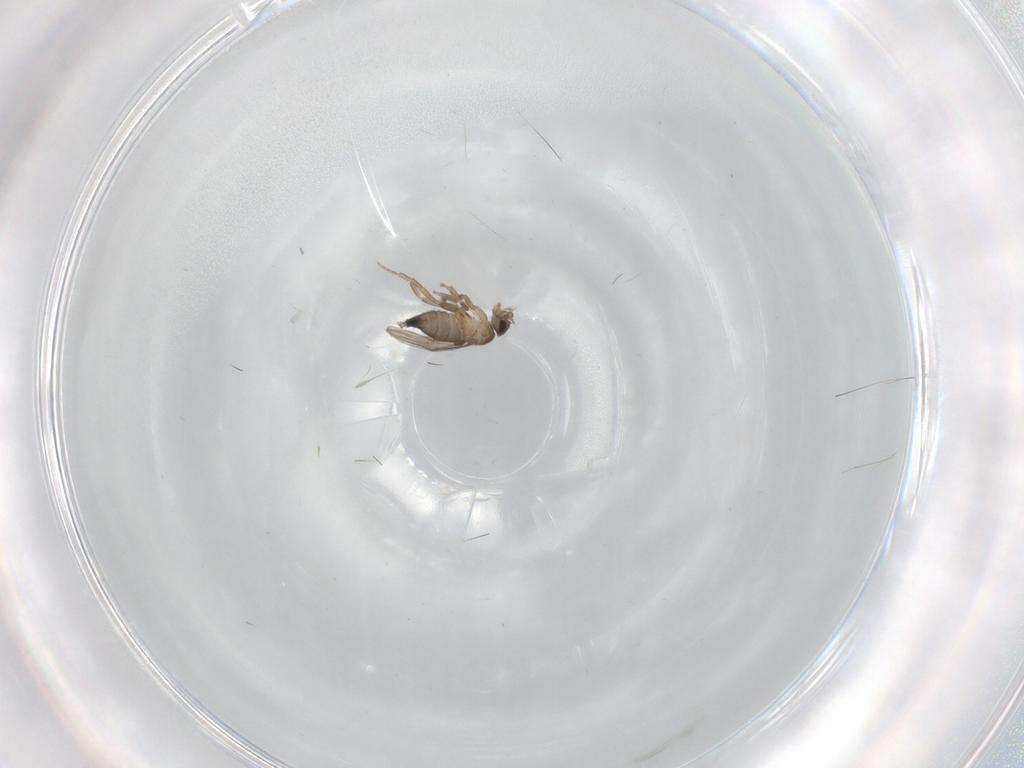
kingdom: Animalia
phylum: Arthropoda
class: Insecta
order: Diptera
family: Phoridae
